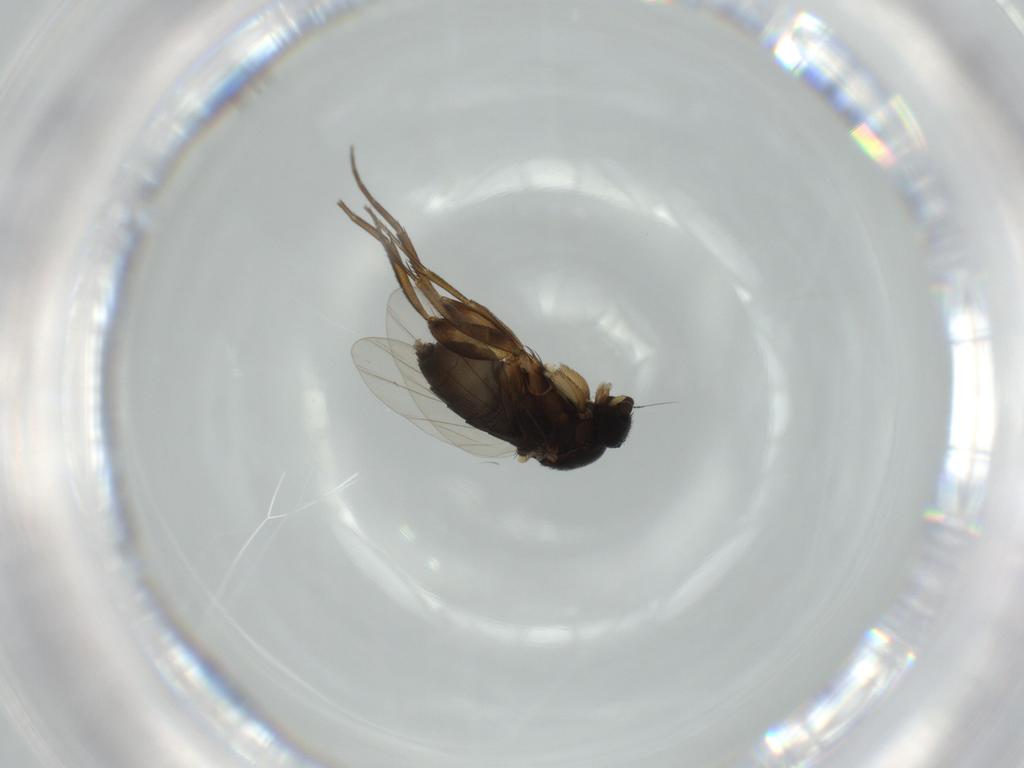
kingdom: Animalia
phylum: Arthropoda
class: Insecta
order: Diptera
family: Phoridae
